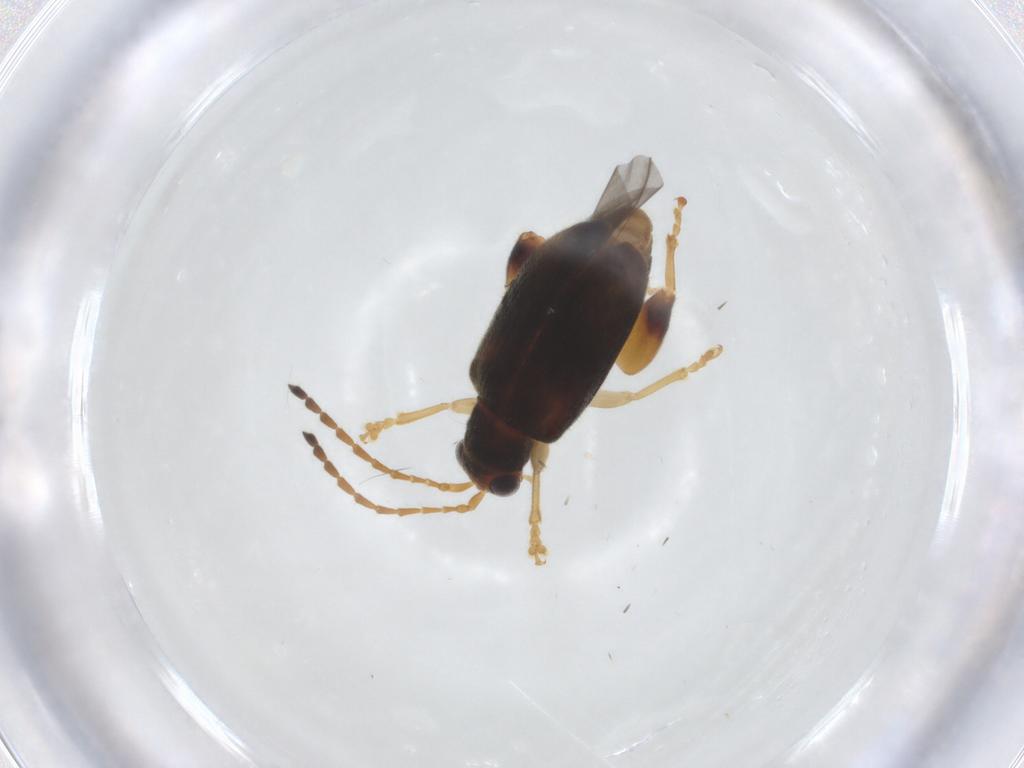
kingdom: Animalia
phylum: Arthropoda
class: Insecta
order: Coleoptera
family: Chrysomelidae
